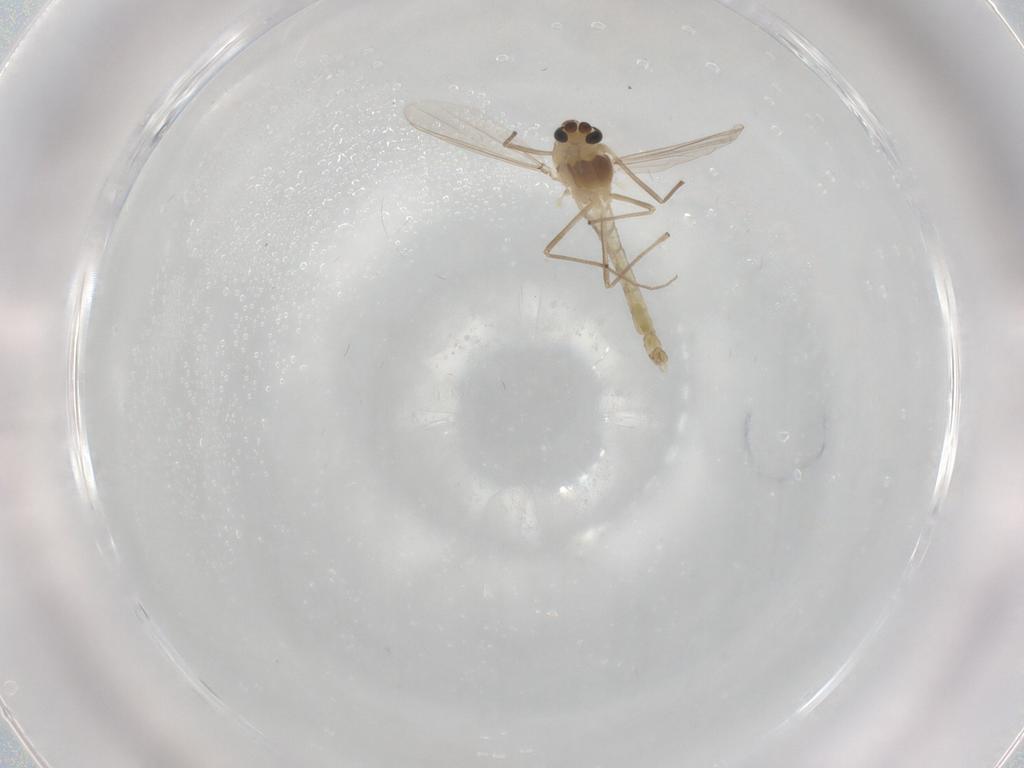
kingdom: Animalia
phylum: Arthropoda
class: Insecta
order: Diptera
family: Chironomidae
